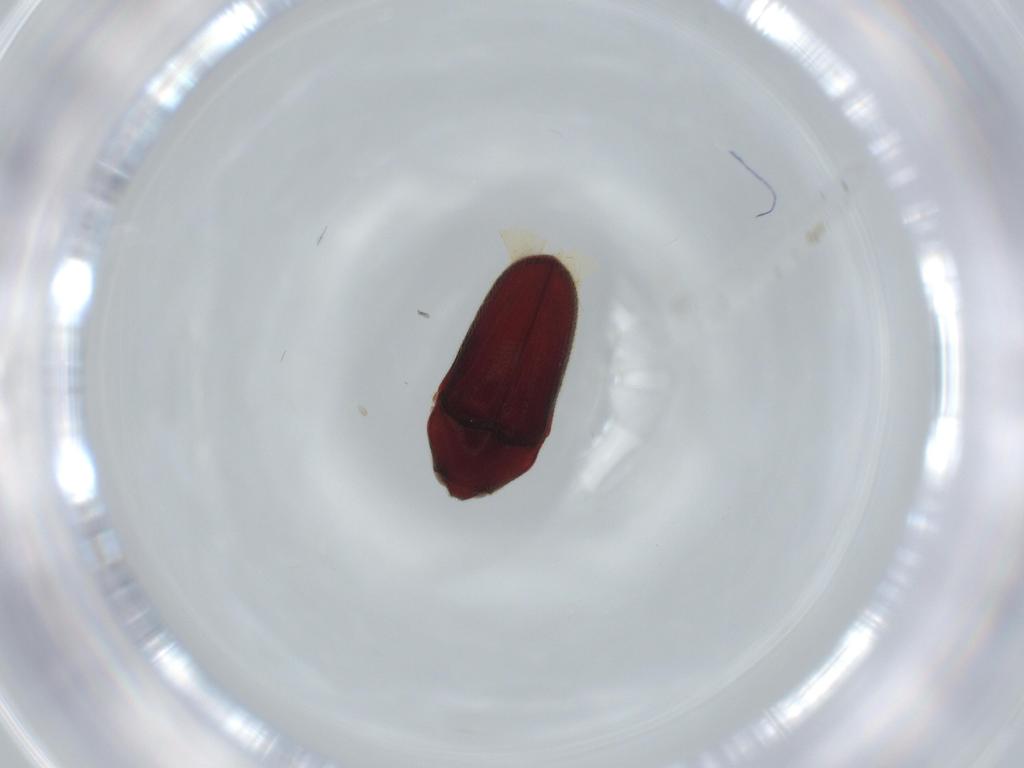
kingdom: Animalia
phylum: Arthropoda
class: Insecta
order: Coleoptera
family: Throscidae
